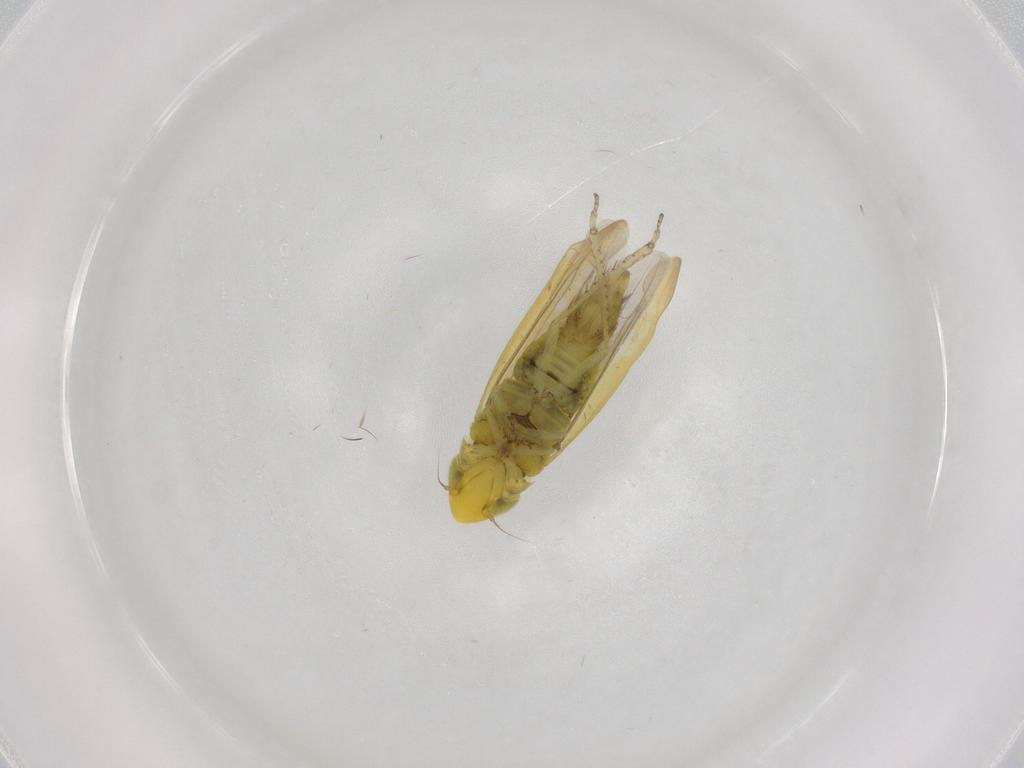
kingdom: Animalia
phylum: Arthropoda
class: Insecta
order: Hemiptera
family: Cicadellidae
